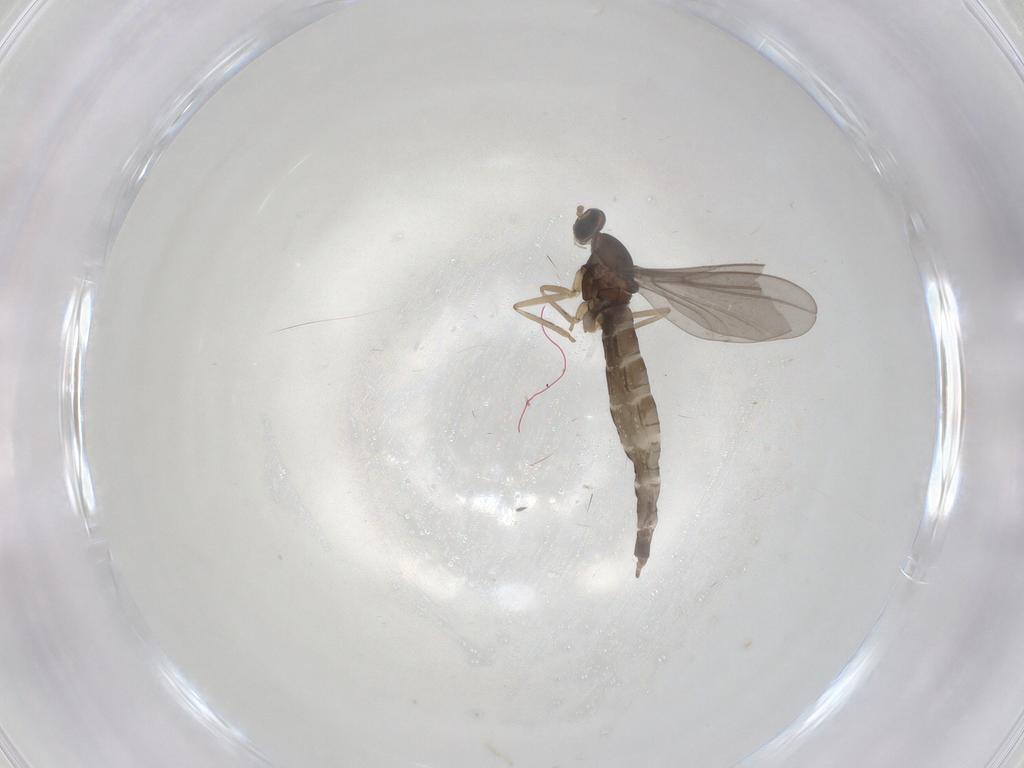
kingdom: Animalia
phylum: Arthropoda
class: Insecta
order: Diptera
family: Cecidomyiidae
